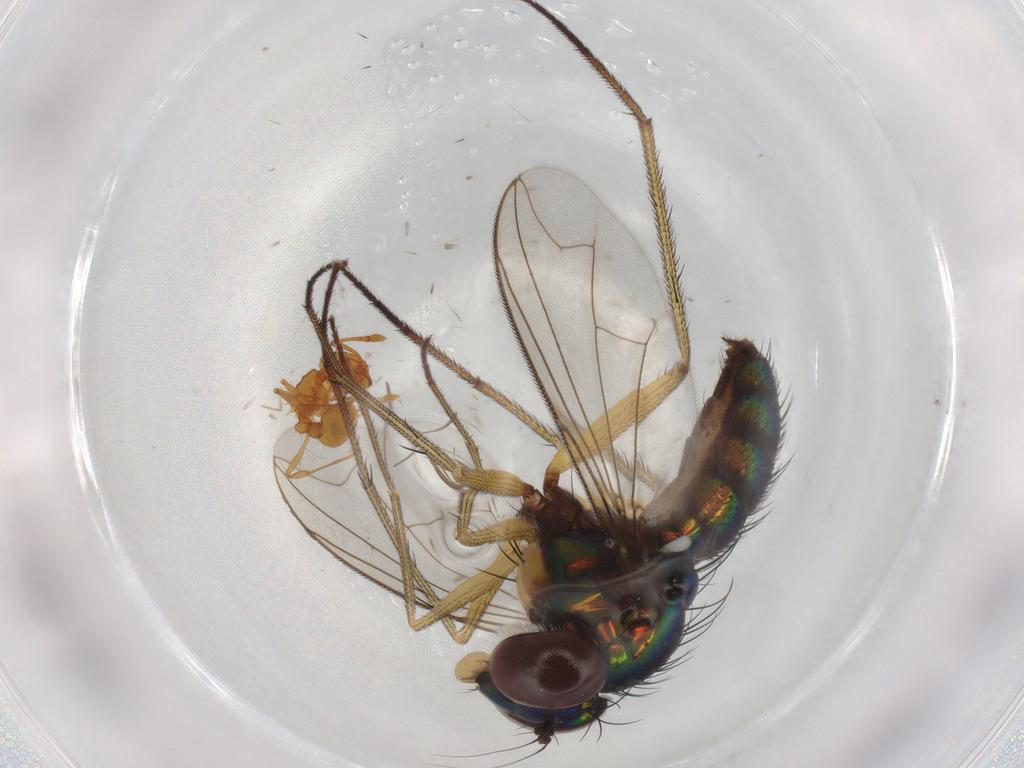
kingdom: Animalia
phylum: Arthropoda
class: Insecta
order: Diptera
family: Dolichopodidae
